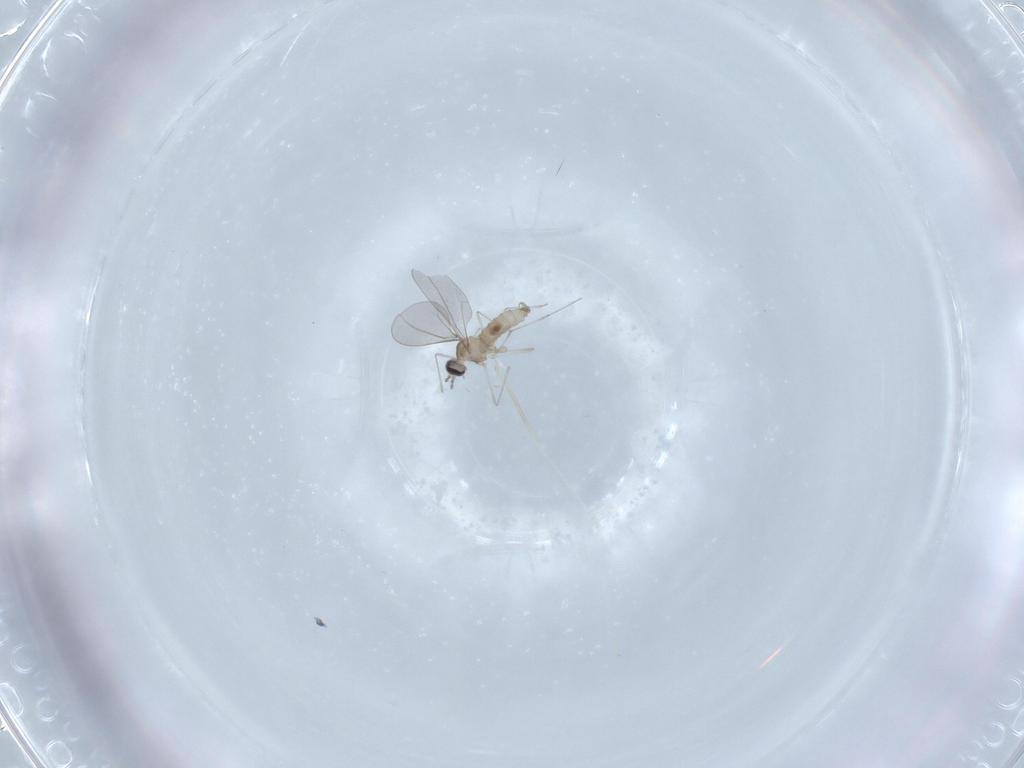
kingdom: Animalia
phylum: Arthropoda
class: Insecta
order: Diptera
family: Cecidomyiidae
